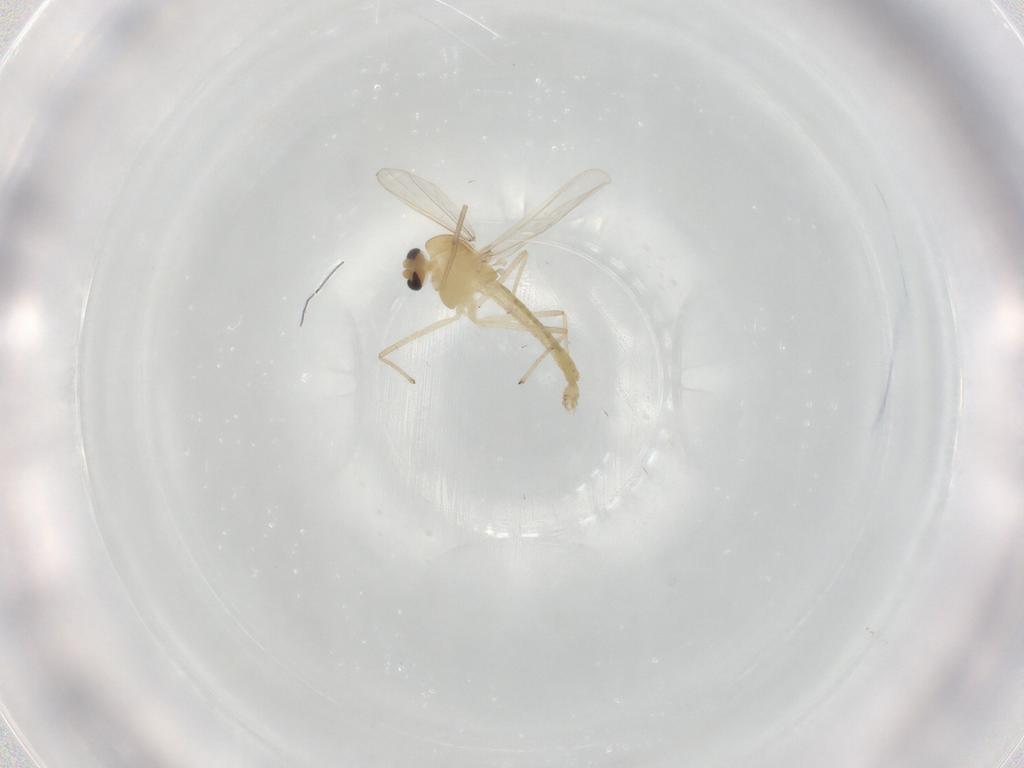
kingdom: Animalia
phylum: Arthropoda
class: Insecta
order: Diptera
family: Chironomidae
